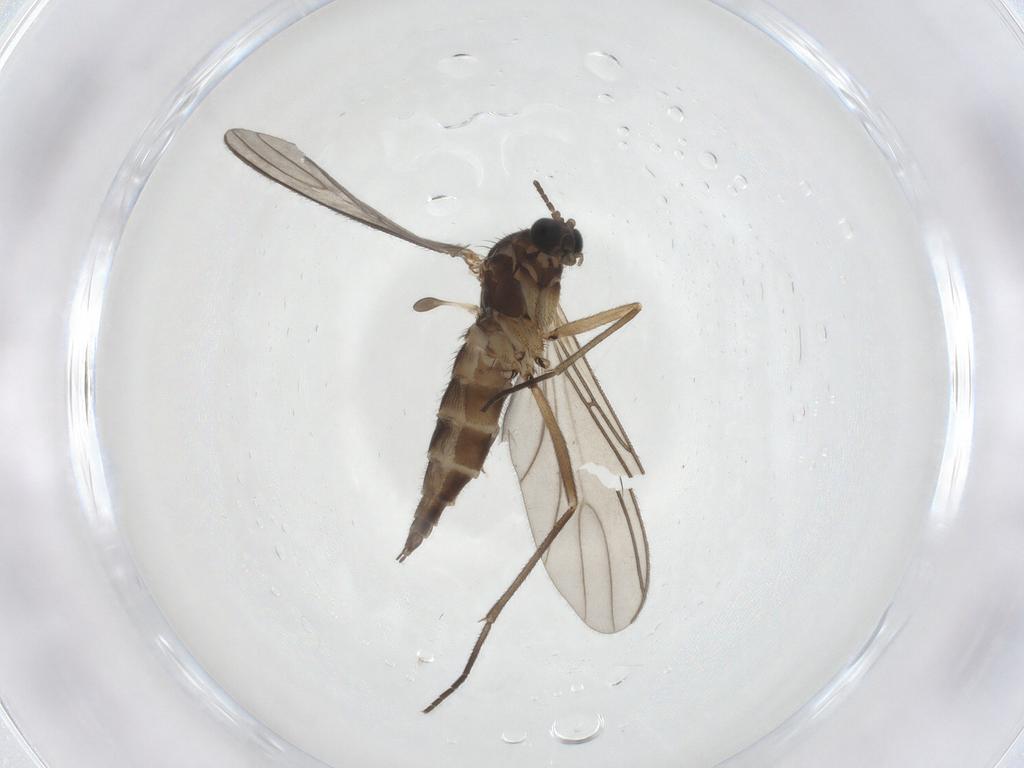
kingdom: Animalia
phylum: Arthropoda
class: Insecta
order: Diptera
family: Sciaridae
